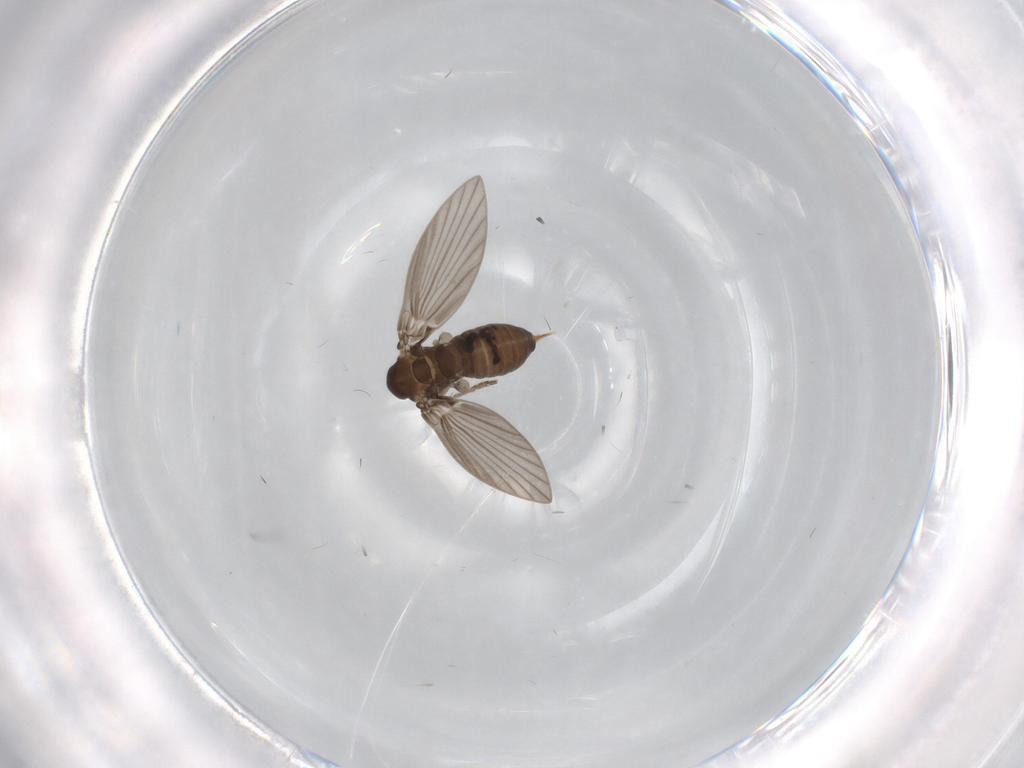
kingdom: Animalia
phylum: Arthropoda
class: Insecta
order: Diptera
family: Psychodidae
